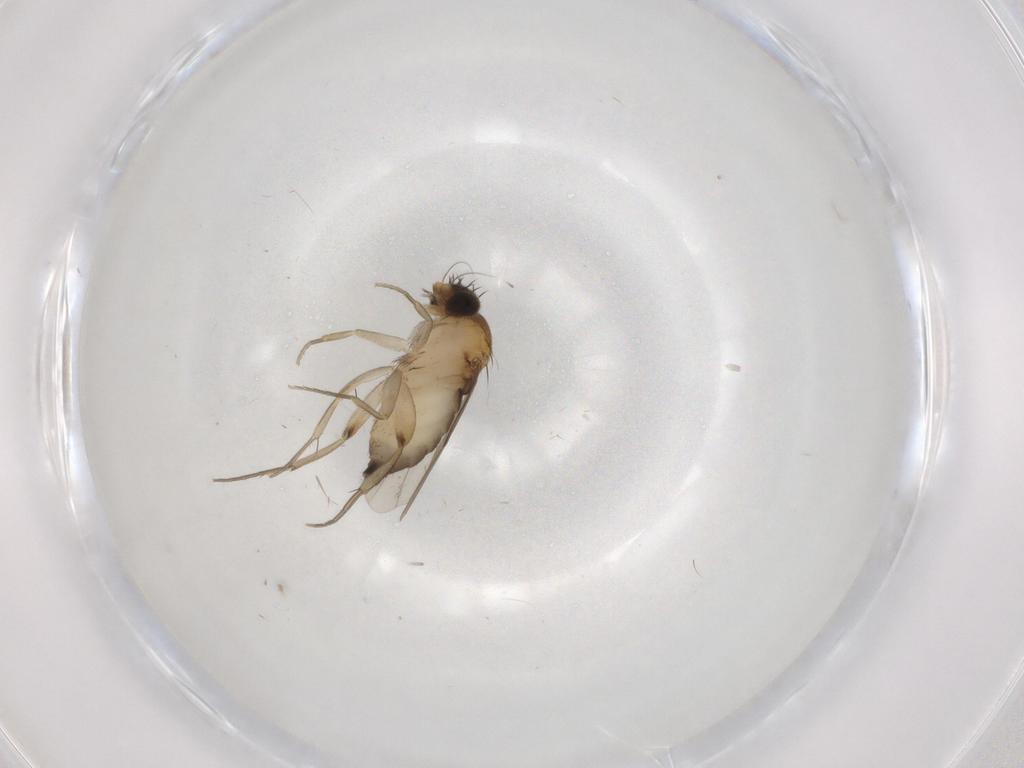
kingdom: Animalia
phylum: Arthropoda
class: Insecta
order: Diptera
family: Phoridae
